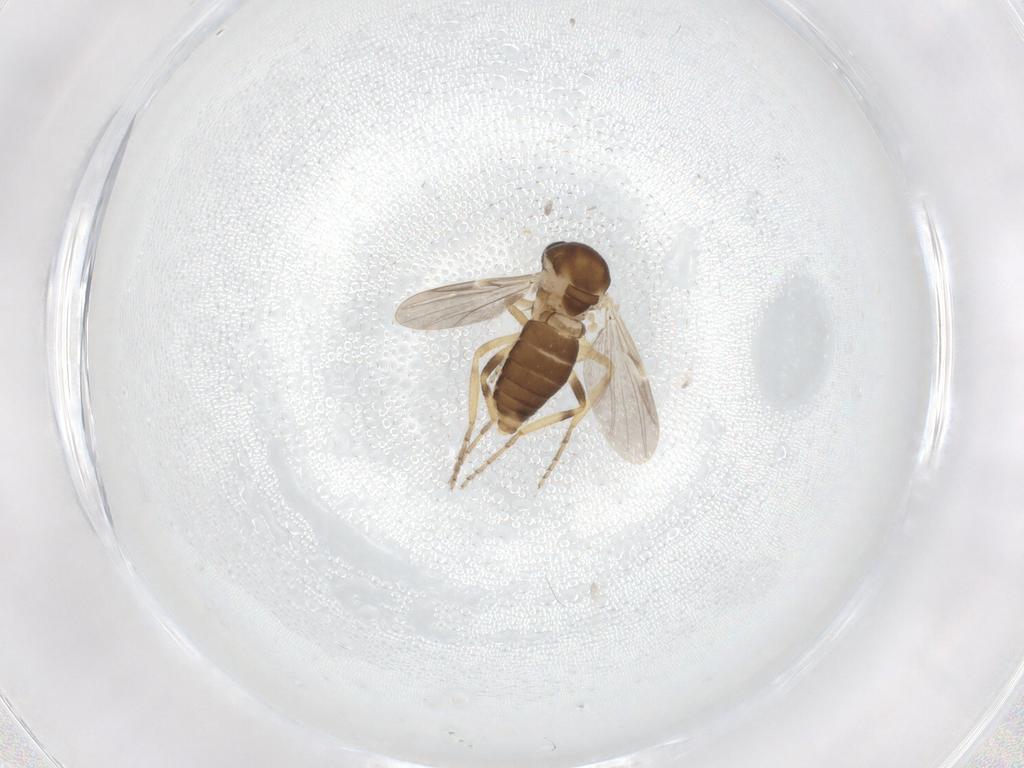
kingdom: Animalia
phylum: Arthropoda
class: Insecta
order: Diptera
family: Ceratopogonidae
